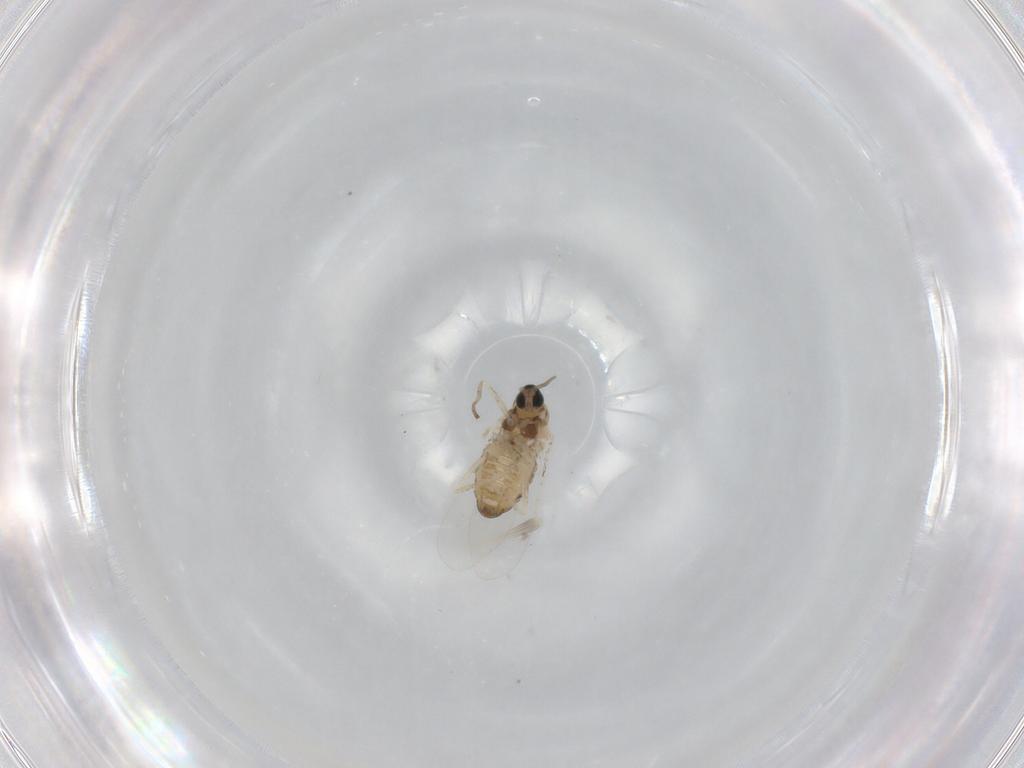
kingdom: Animalia
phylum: Arthropoda
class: Insecta
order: Diptera
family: Cecidomyiidae
